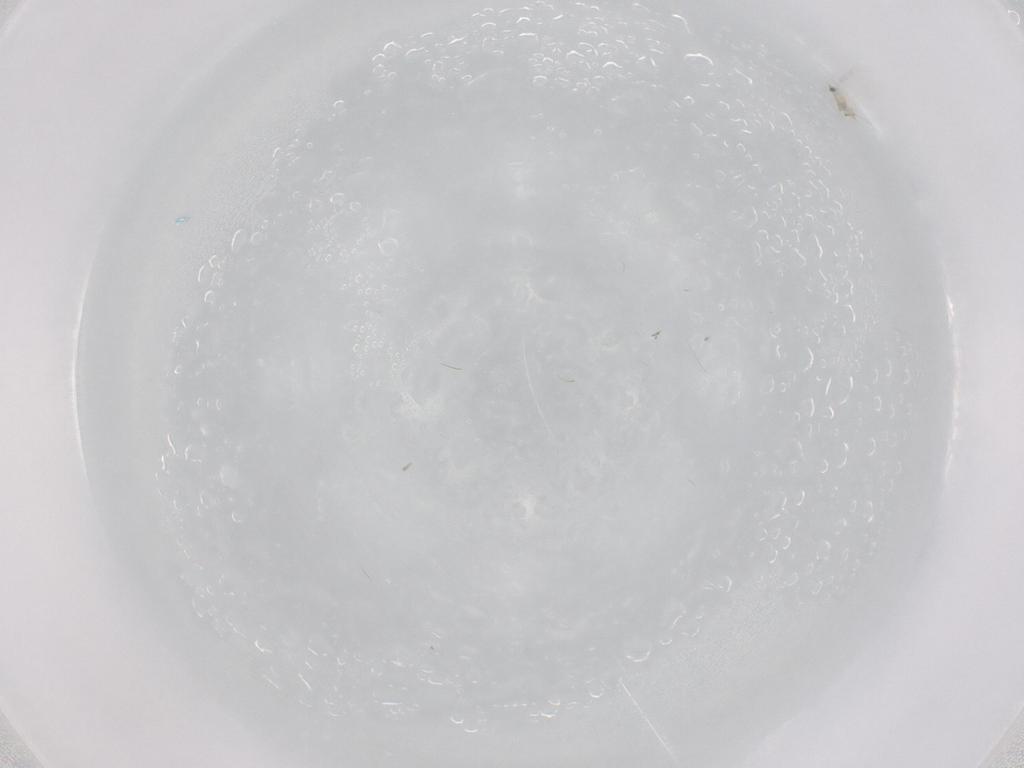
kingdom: Animalia
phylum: Arthropoda
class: Insecta
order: Hymenoptera
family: Mymaridae
